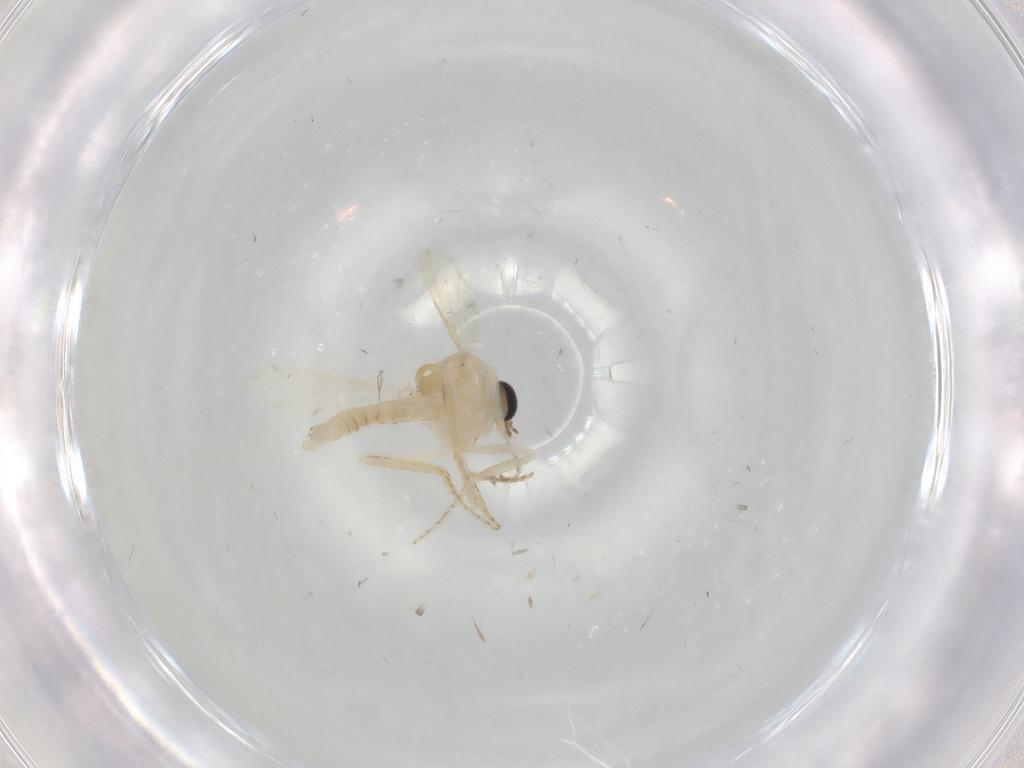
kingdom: Animalia
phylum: Arthropoda
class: Insecta
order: Diptera
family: Ceratopogonidae
